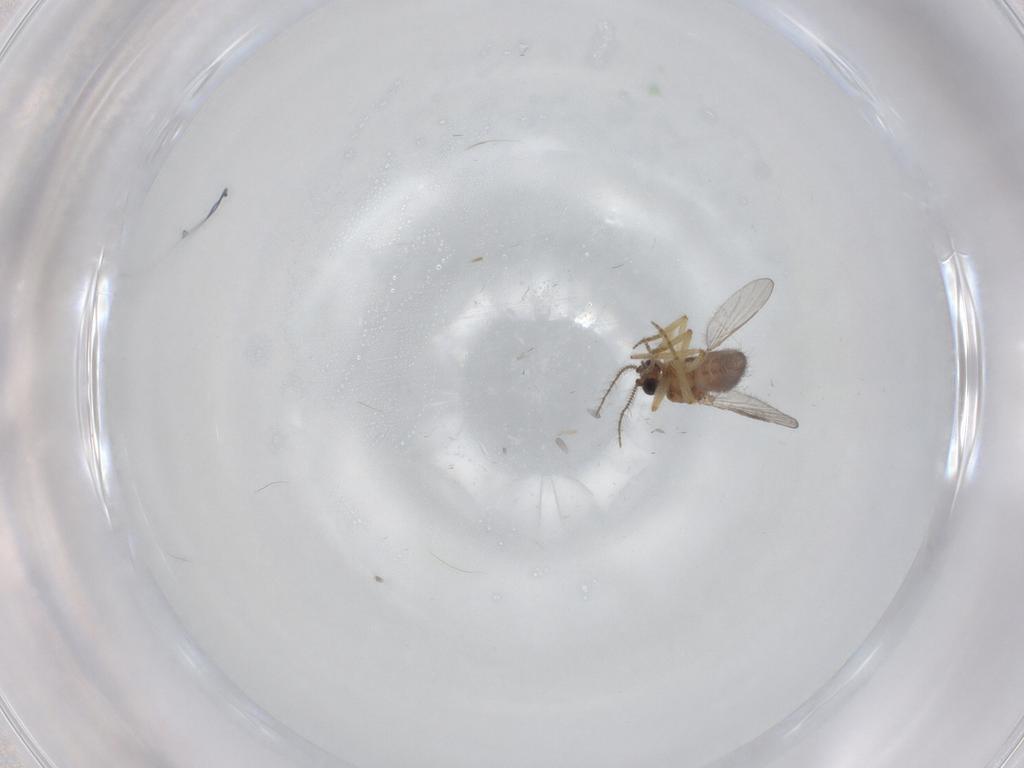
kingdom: Animalia
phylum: Arthropoda
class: Insecta
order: Diptera
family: Ceratopogonidae
